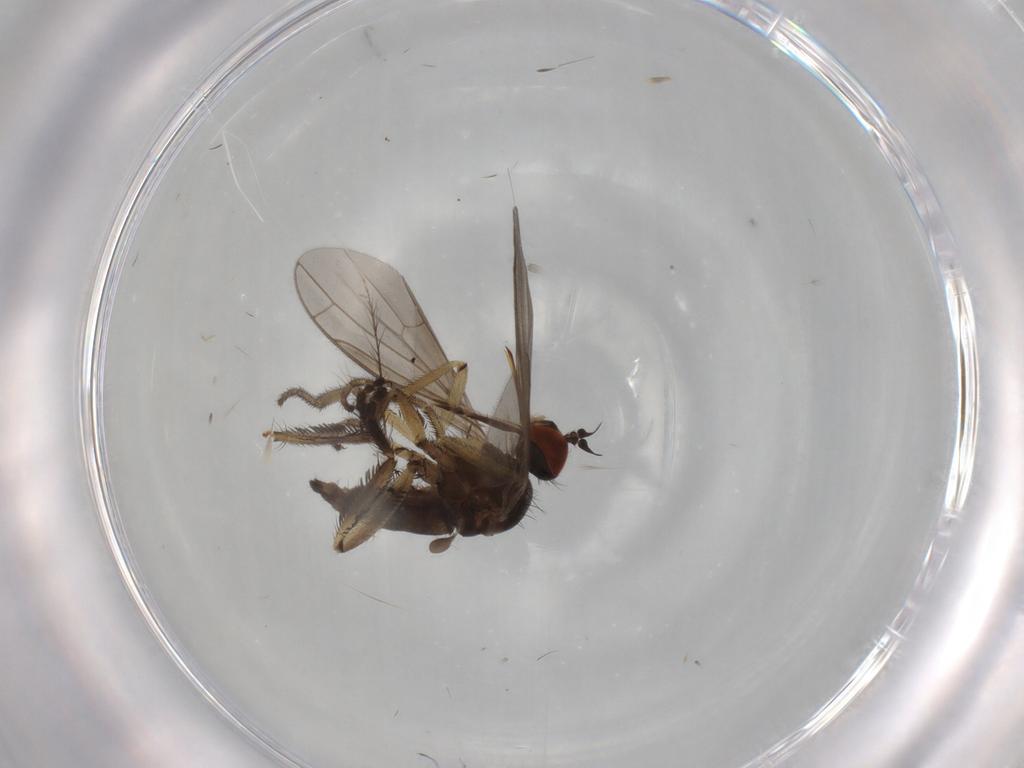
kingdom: Animalia
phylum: Arthropoda
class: Insecta
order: Diptera
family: Empididae
